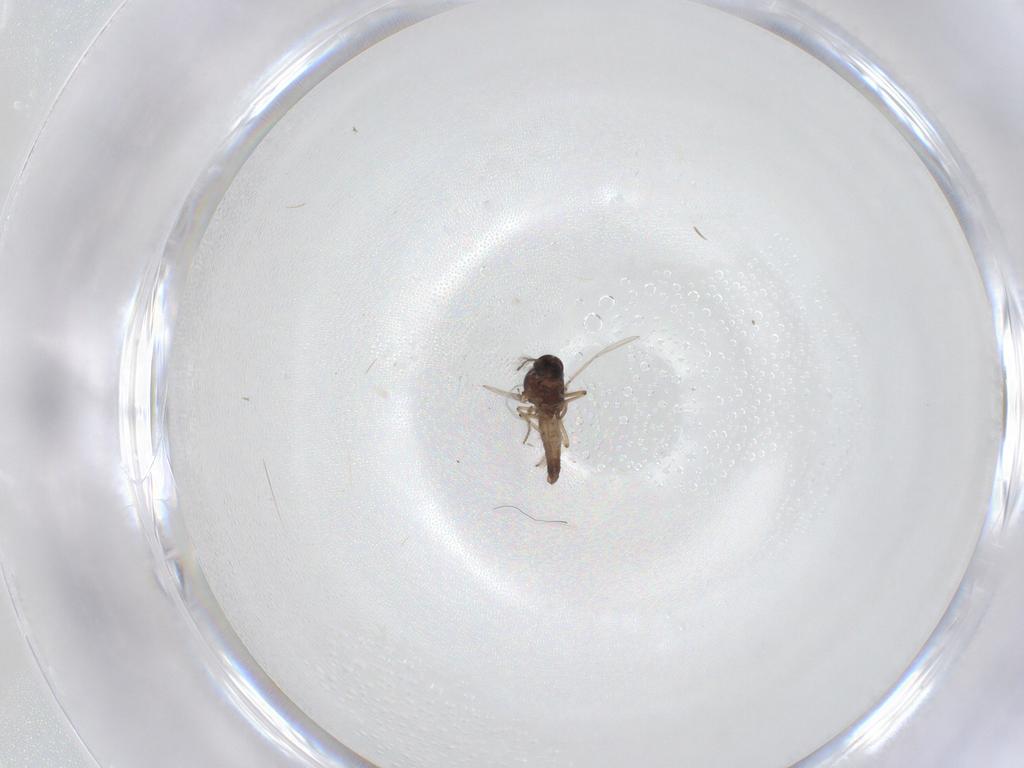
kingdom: Animalia
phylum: Arthropoda
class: Insecta
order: Diptera
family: Ceratopogonidae
